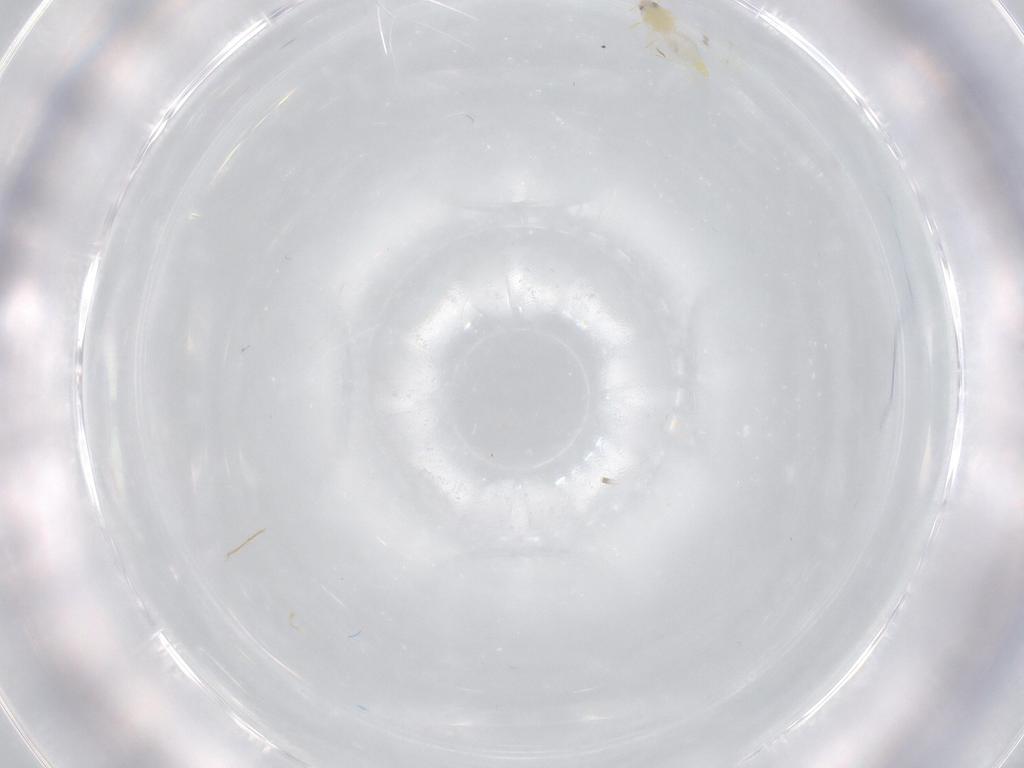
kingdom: Animalia
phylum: Arthropoda
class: Insecta
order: Hemiptera
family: Aleyrodidae
